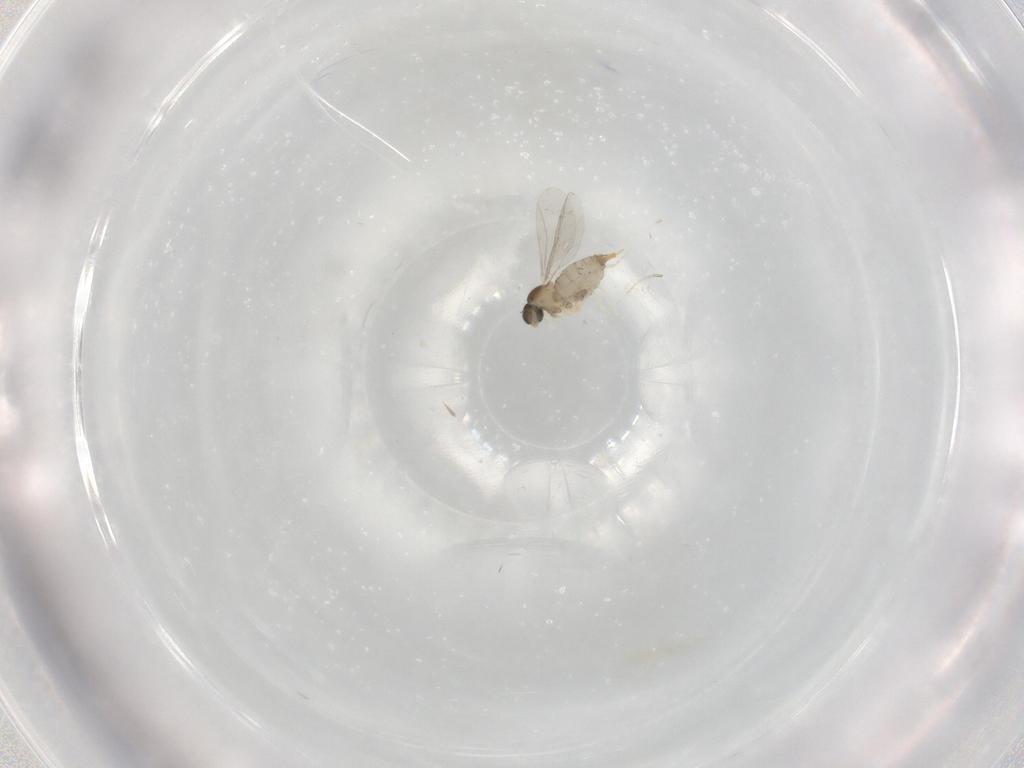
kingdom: Animalia
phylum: Arthropoda
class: Insecta
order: Diptera
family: Cecidomyiidae
